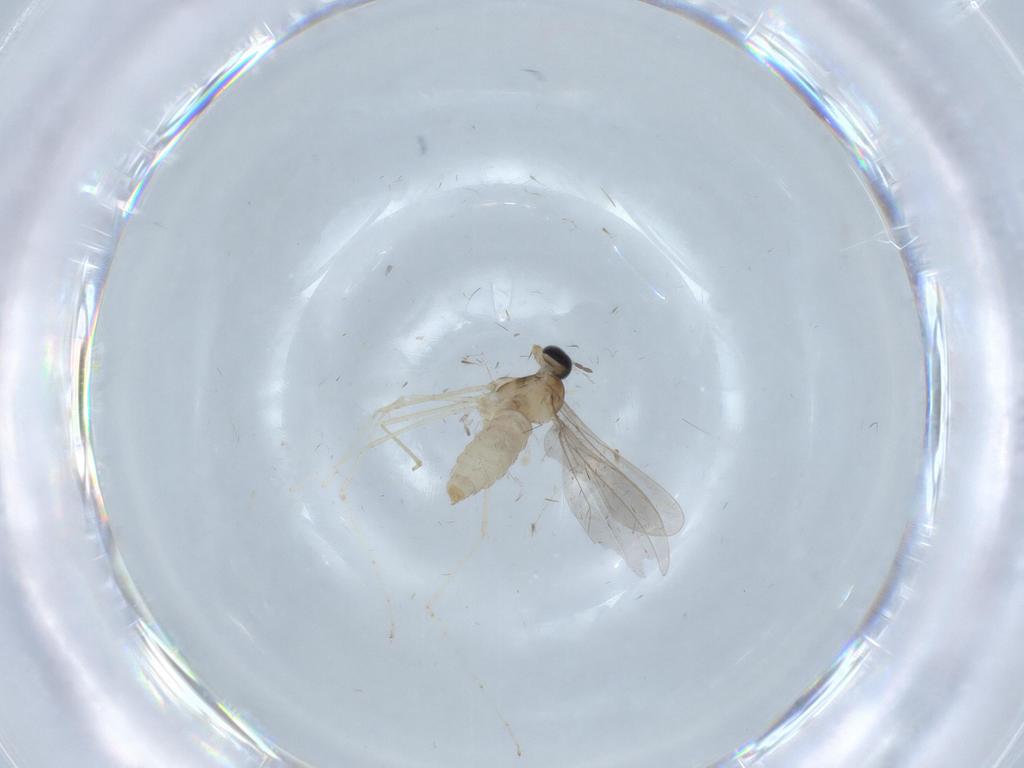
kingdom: Animalia
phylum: Arthropoda
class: Insecta
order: Diptera
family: Cecidomyiidae
